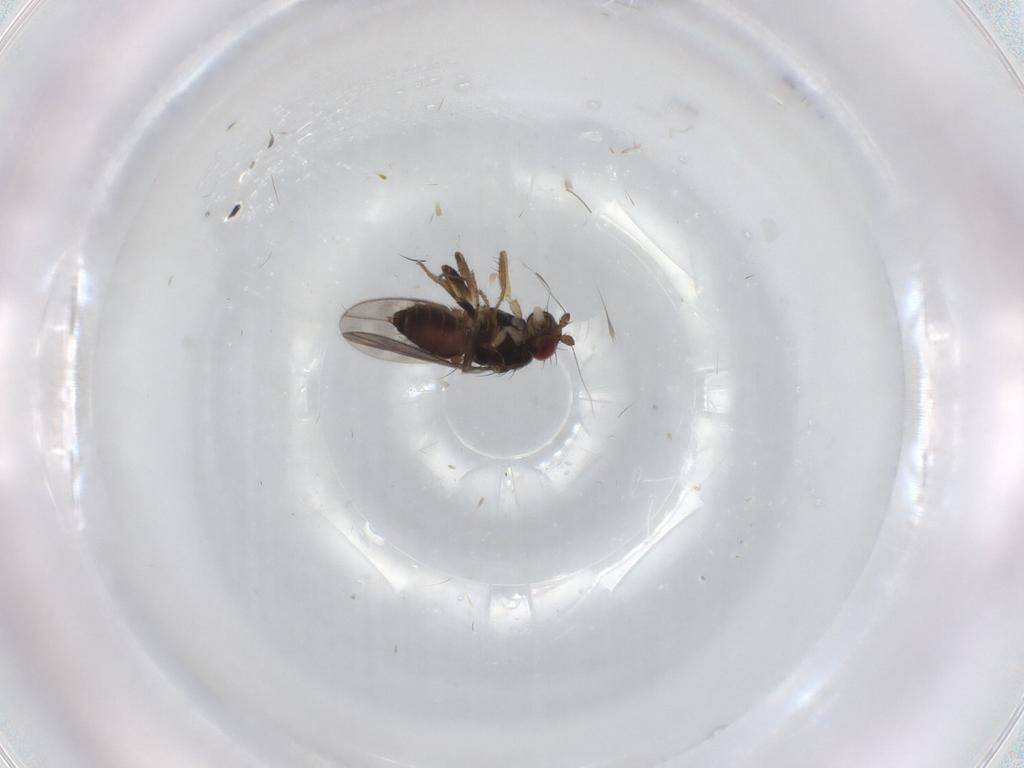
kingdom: Animalia
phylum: Arthropoda
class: Insecta
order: Diptera
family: Sphaeroceridae
